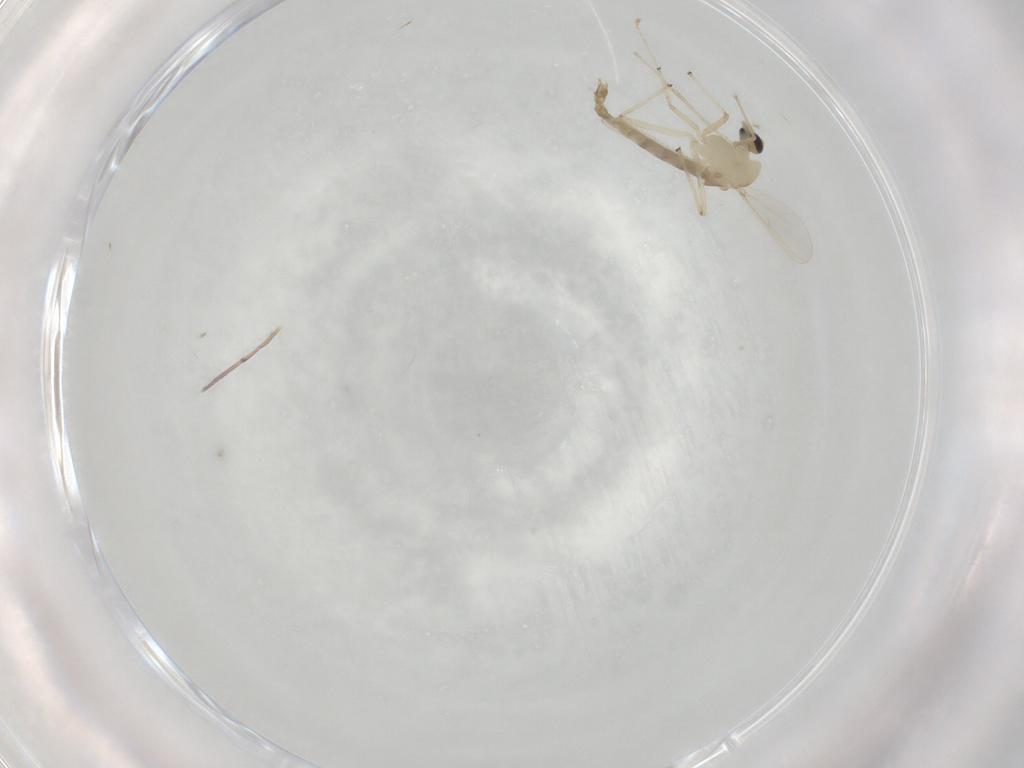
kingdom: Animalia
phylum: Arthropoda
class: Insecta
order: Diptera
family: Chironomidae
